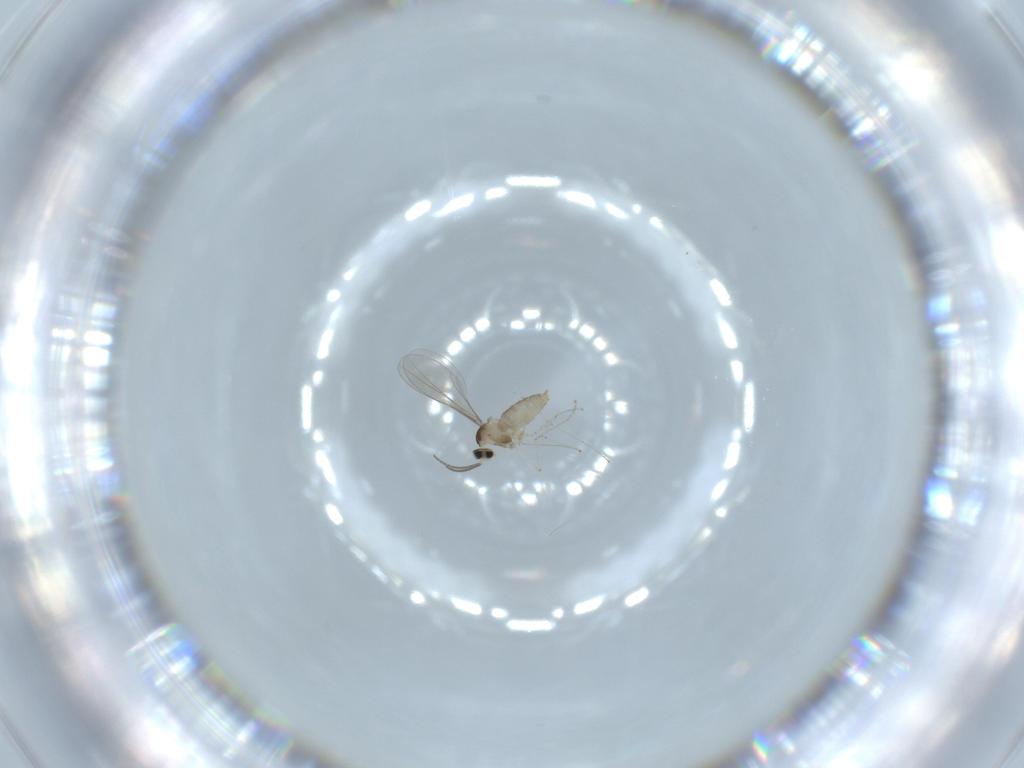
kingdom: Animalia
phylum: Arthropoda
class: Insecta
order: Diptera
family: Cecidomyiidae
